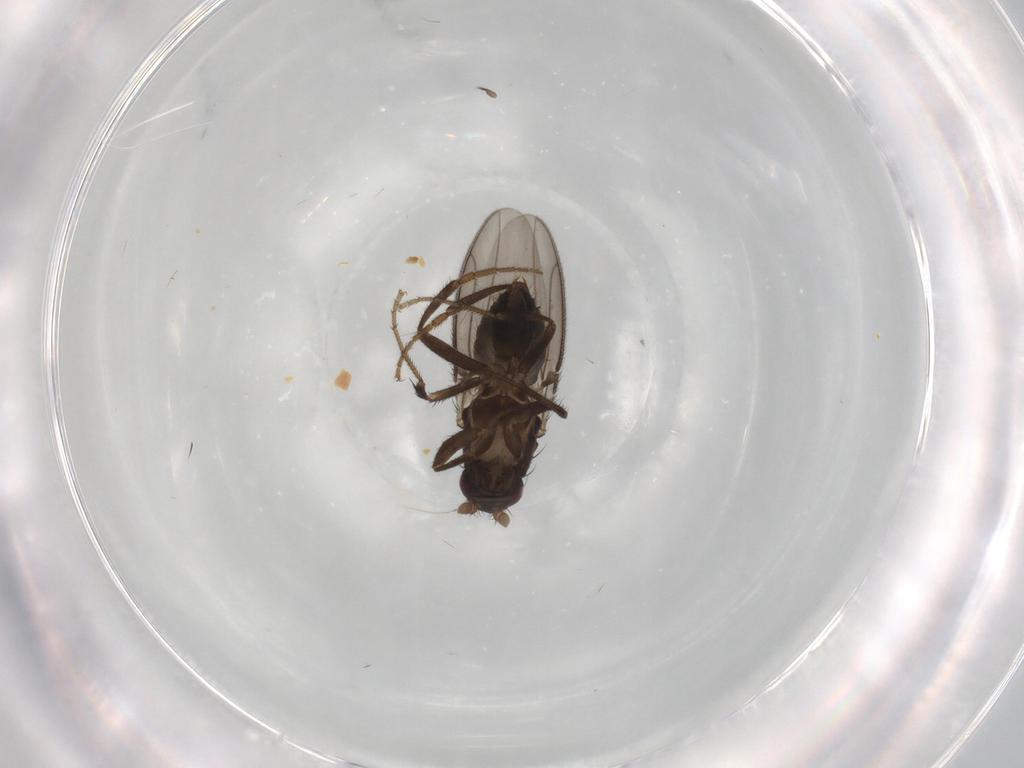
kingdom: Animalia
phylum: Arthropoda
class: Insecta
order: Diptera
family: Sphaeroceridae
